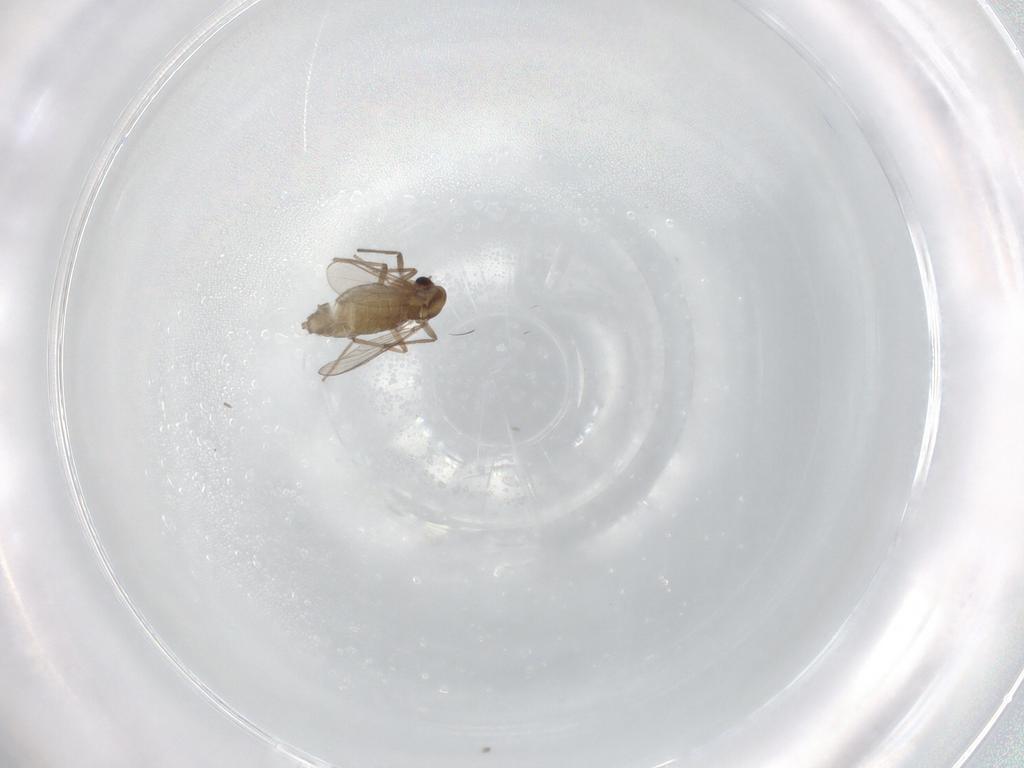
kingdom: Animalia
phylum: Arthropoda
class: Insecta
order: Diptera
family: Chironomidae
